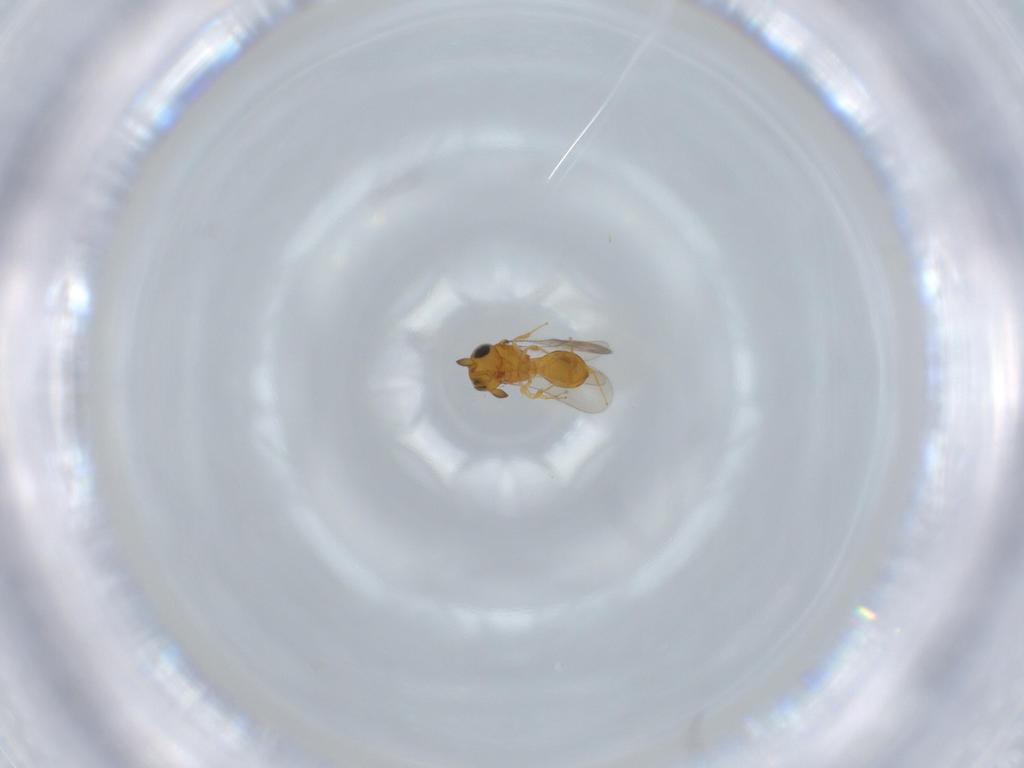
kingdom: Animalia
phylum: Arthropoda
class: Insecta
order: Hymenoptera
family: Scelionidae
